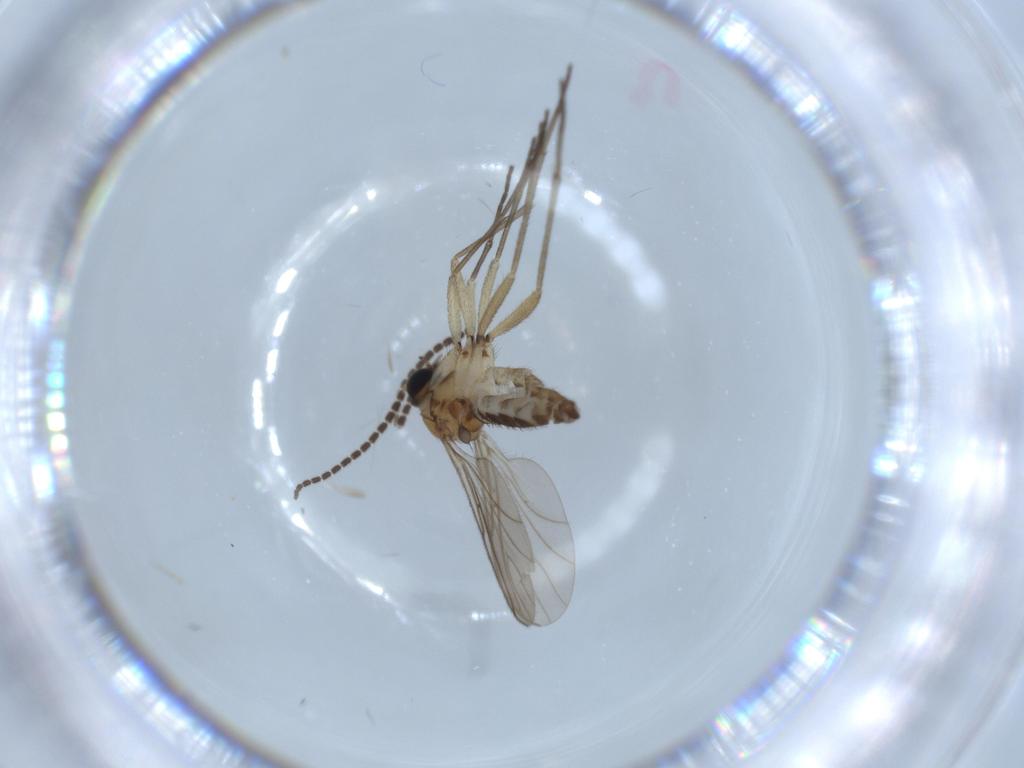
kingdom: Animalia
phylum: Arthropoda
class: Insecta
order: Diptera
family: Sciaridae
